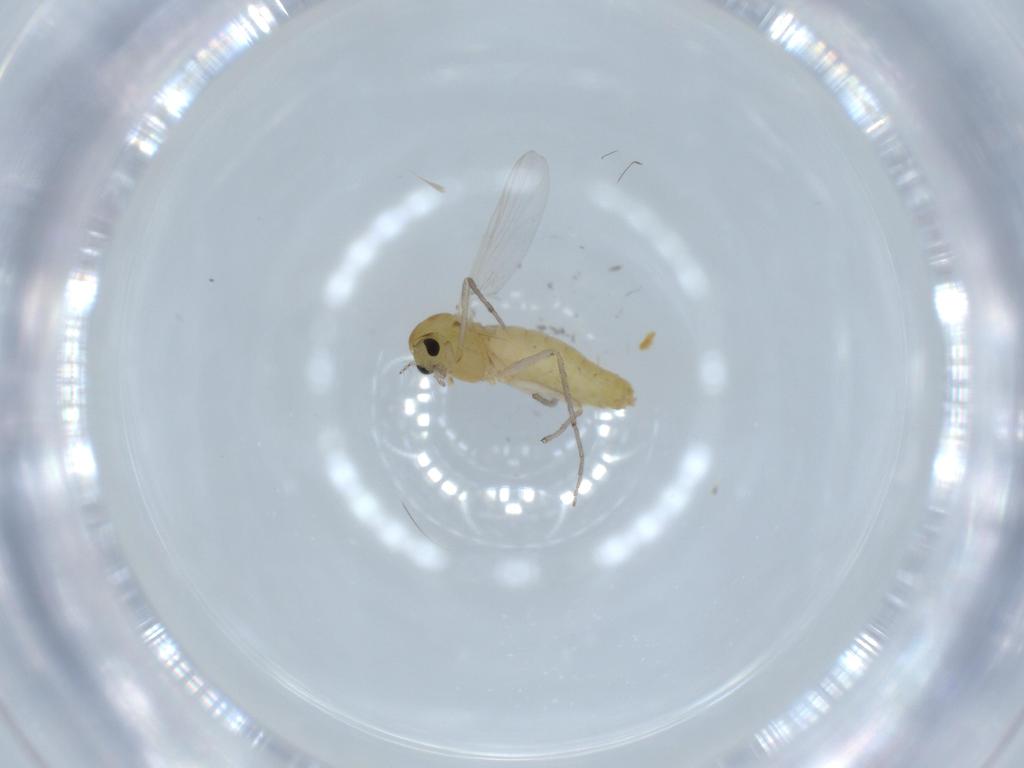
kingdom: Animalia
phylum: Arthropoda
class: Insecta
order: Diptera
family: Chironomidae
